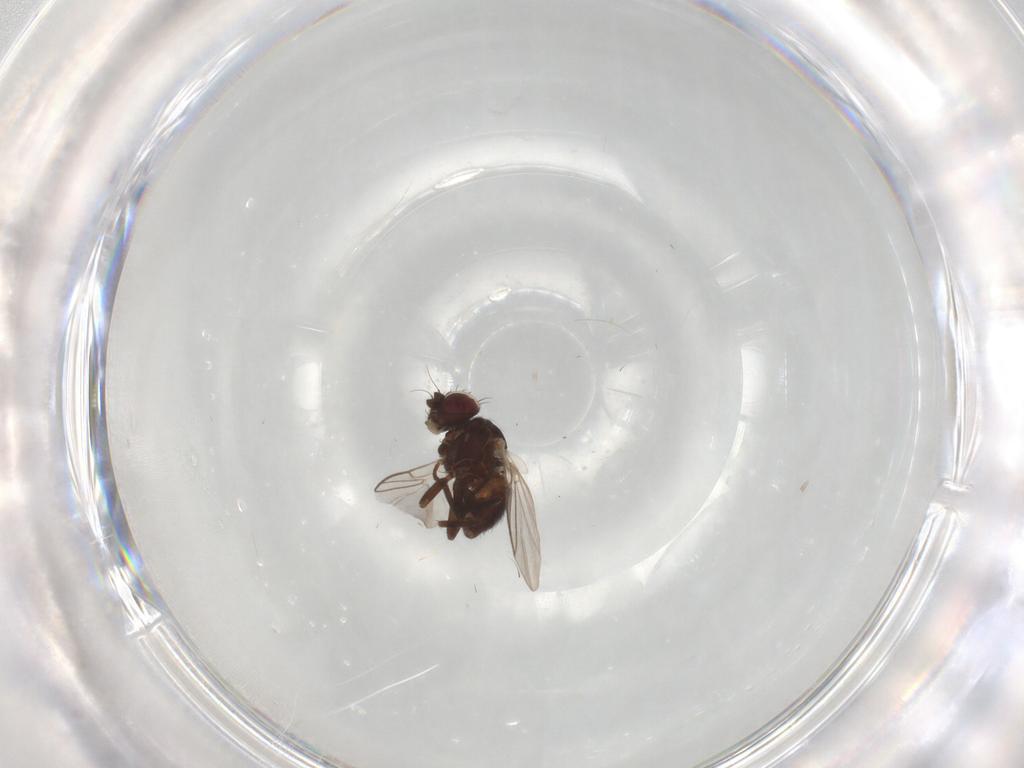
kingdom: Animalia
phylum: Arthropoda
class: Insecta
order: Diptera
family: Dolichopodidae
